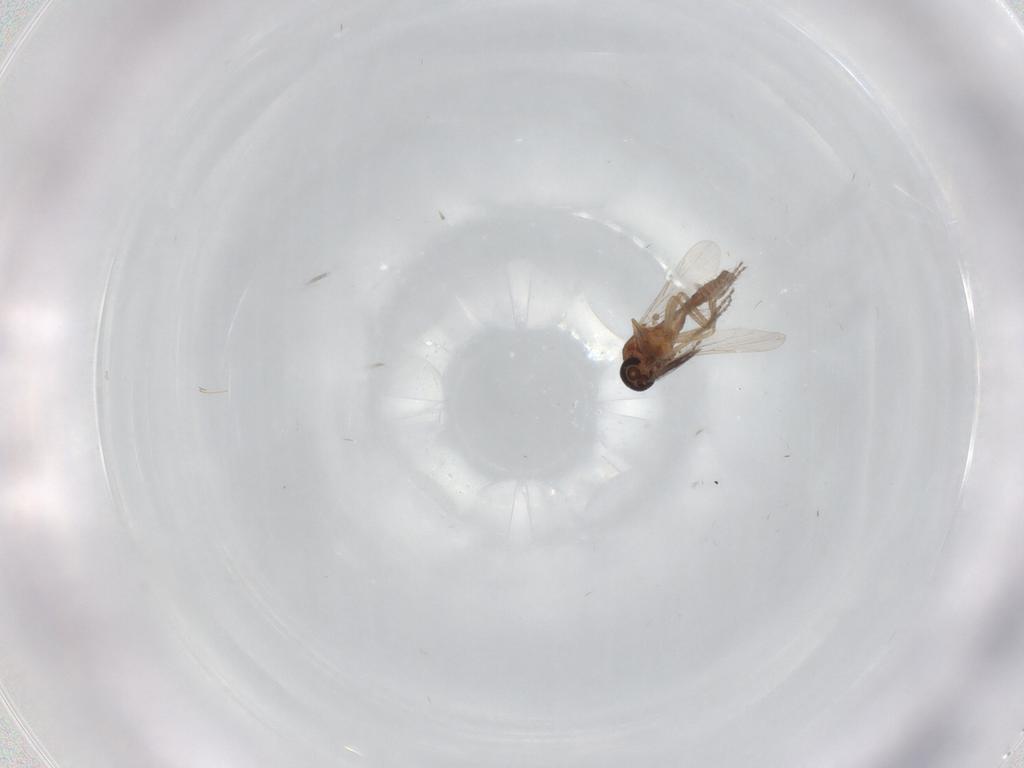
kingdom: Animalia
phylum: Arthropoda
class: Insecta
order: Diptera
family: Ceratopogonidae
